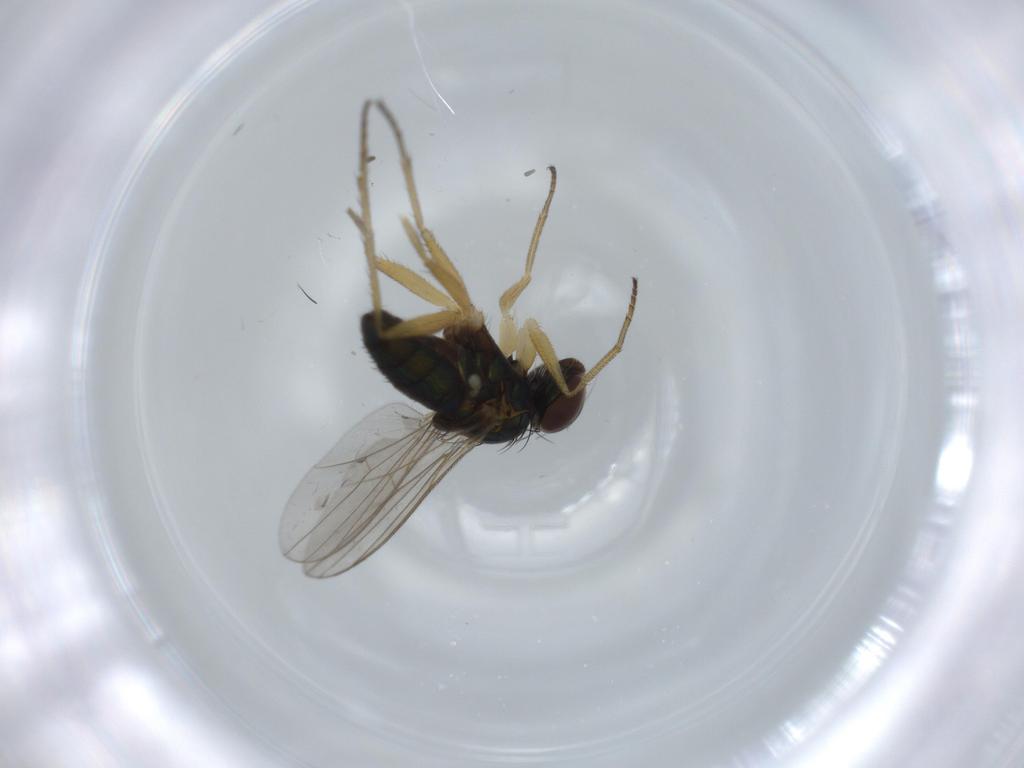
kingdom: Animalia
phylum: Arthropoda
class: Insecta
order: Diptera
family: Dolichopodidae
